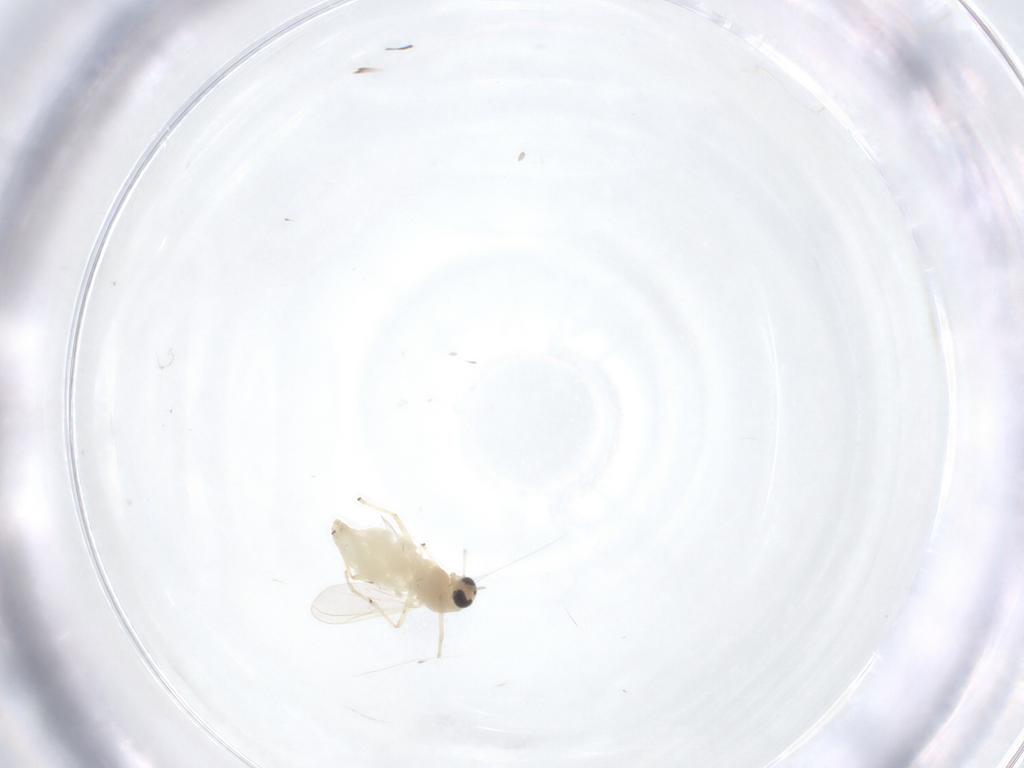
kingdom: Animalia
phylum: Arthropoda
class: Insecta
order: Diptera
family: Chironomidae
